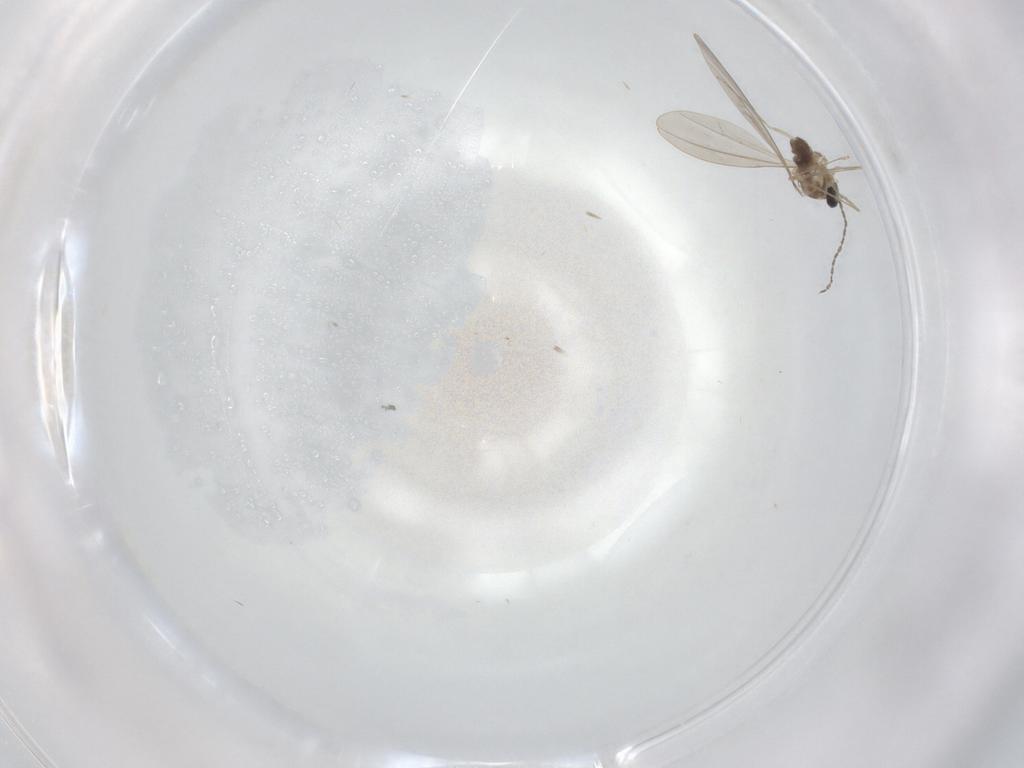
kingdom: Animalia
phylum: Arthropoda
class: Insecta
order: Diptera
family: Cecidomyiidae
